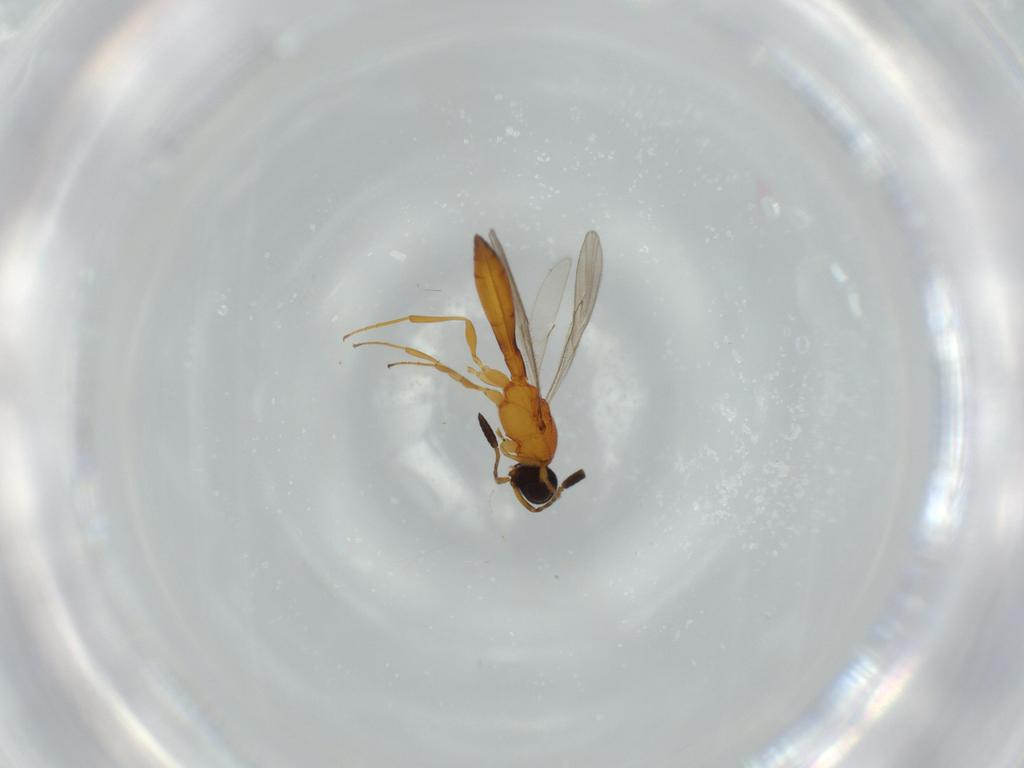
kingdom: Animalia
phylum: Arthropoda
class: Insecta
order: Hymenoptera
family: Scelionidae
